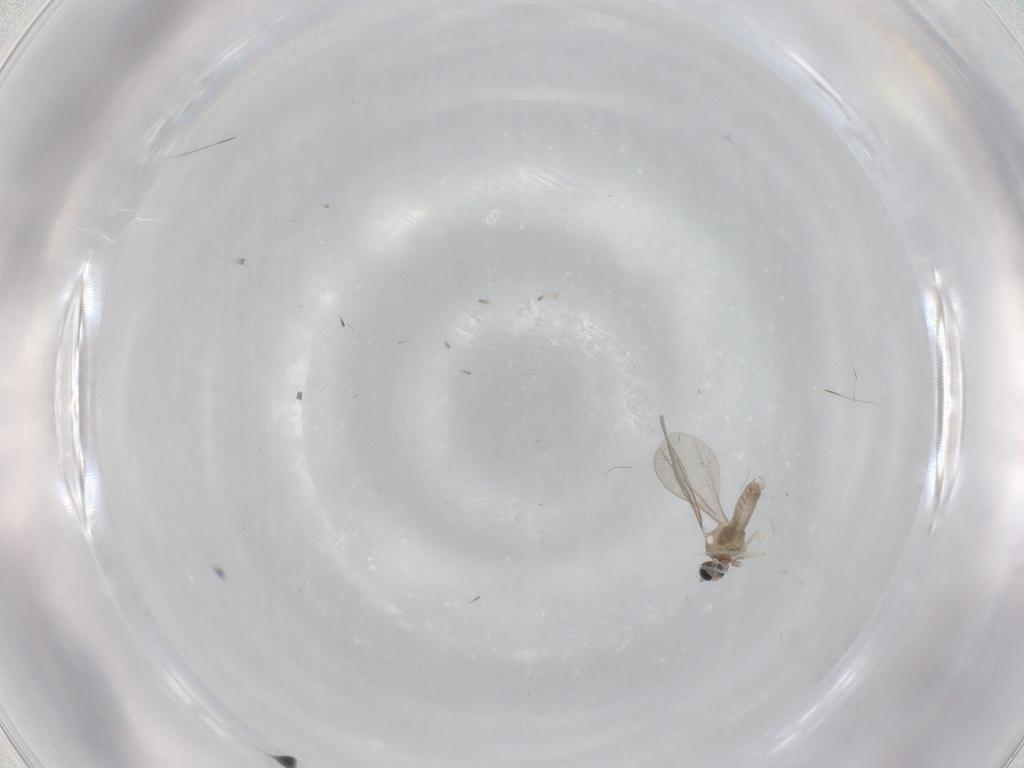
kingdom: Animalia
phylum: Arthropoda
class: Insecta
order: Diptera
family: Cecidomyiidae
